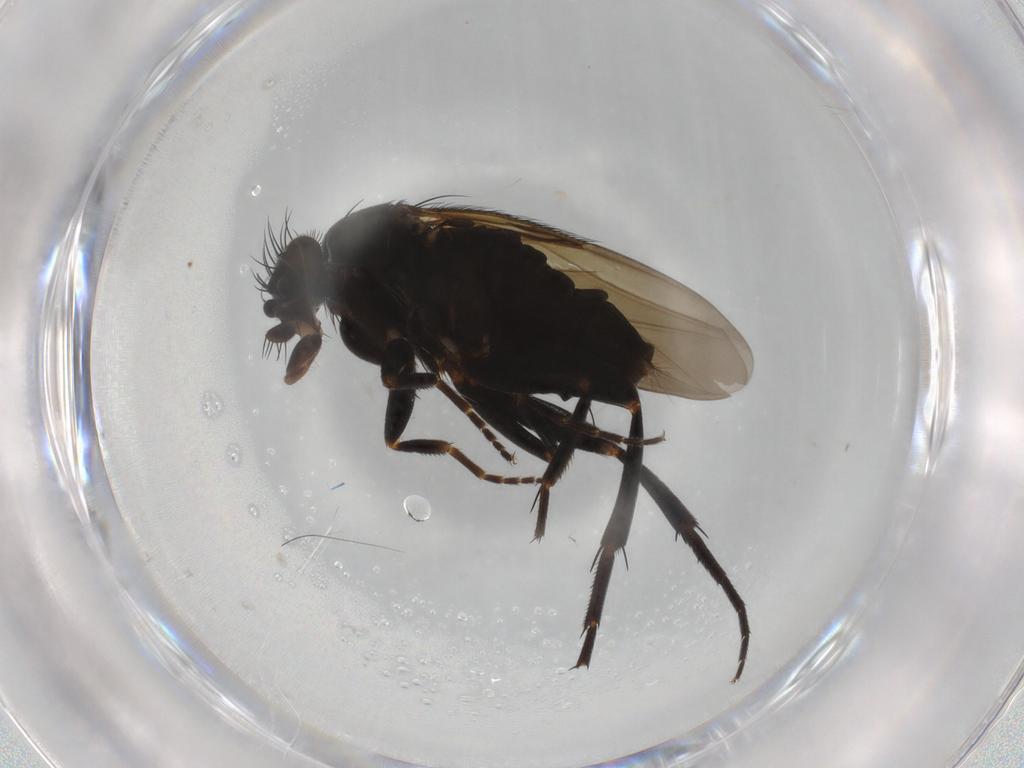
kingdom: Animalia
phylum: Arthropoda
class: Insecta
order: Diptera
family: Phoridae
